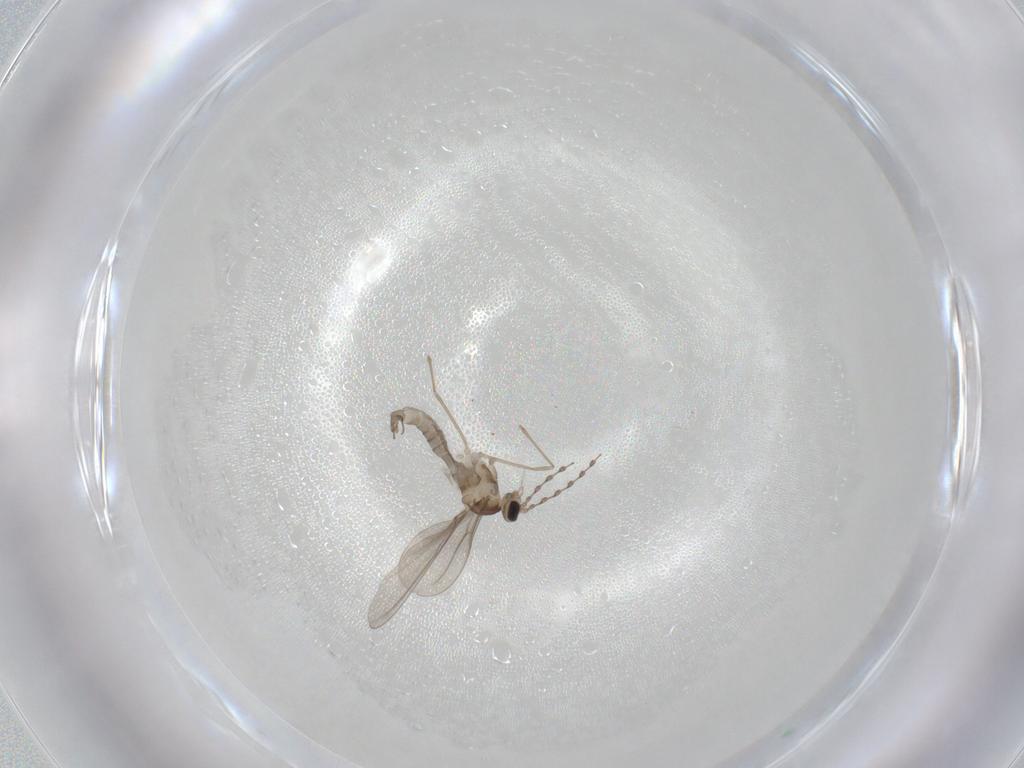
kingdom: Animalia
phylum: Arthropoda
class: Insecta
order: Diptera
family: Cecidomyiidae
